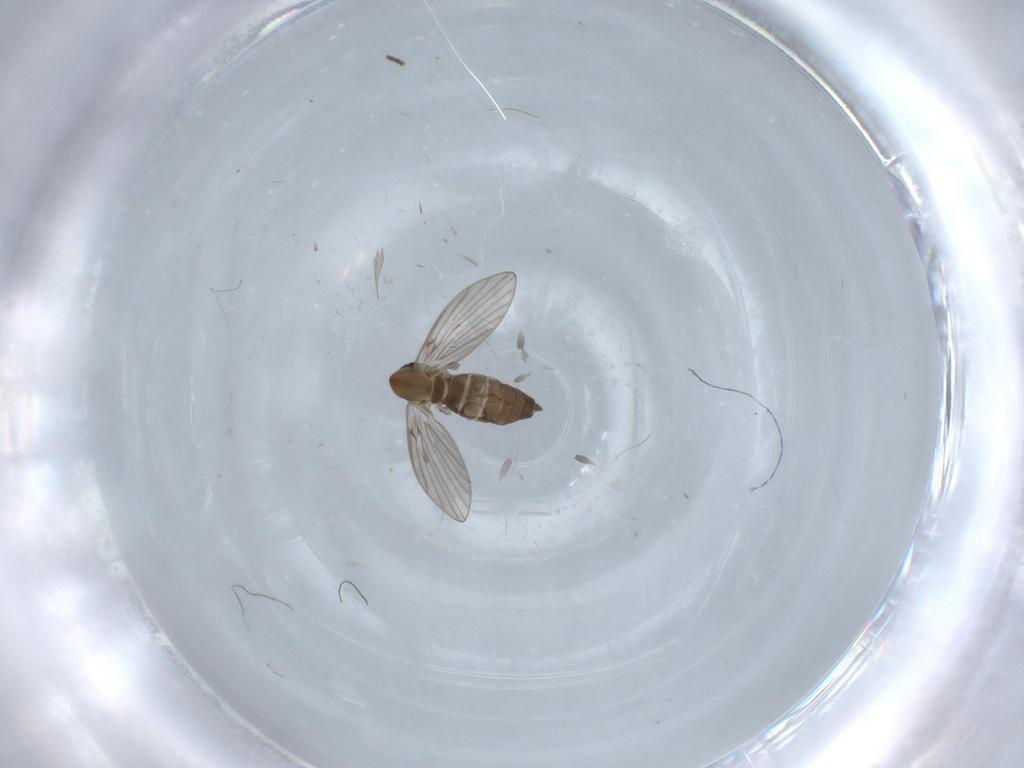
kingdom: Animalia
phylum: Arthropoda
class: Insecta
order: Diptera
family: Psychodidae
